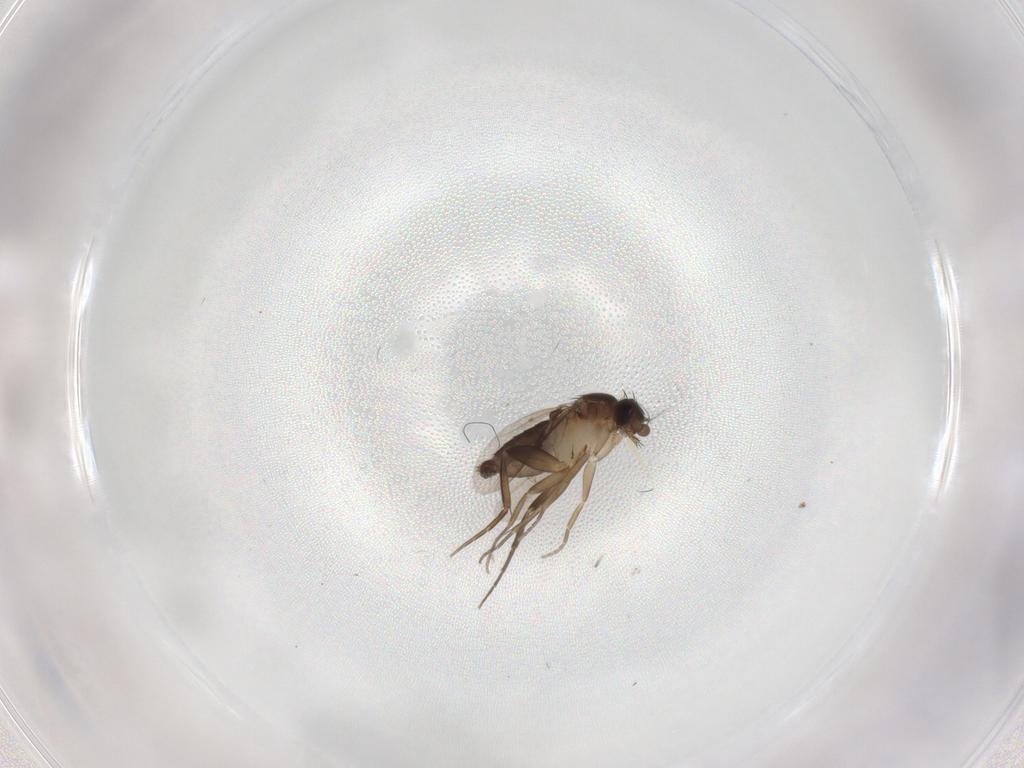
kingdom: Animalia
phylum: Arthropoda
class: Insecta
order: Diptera
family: Phoridae
